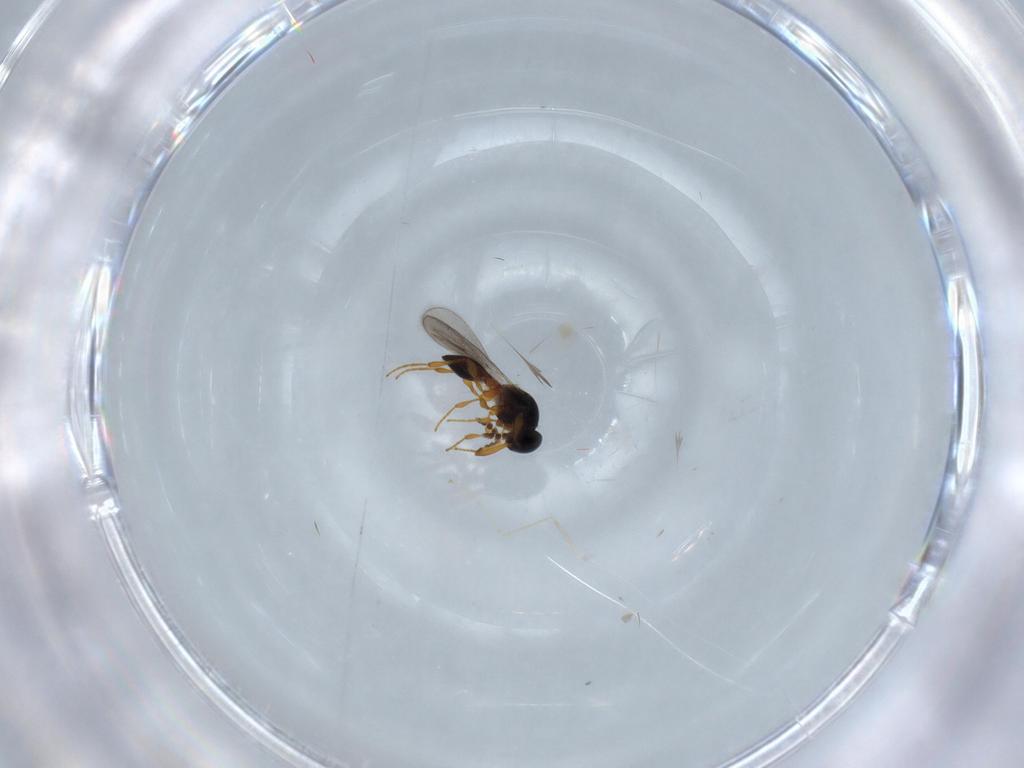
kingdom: Animalia
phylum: Arthropoda
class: Insecta
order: Hymenoptera
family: Platygastridae
